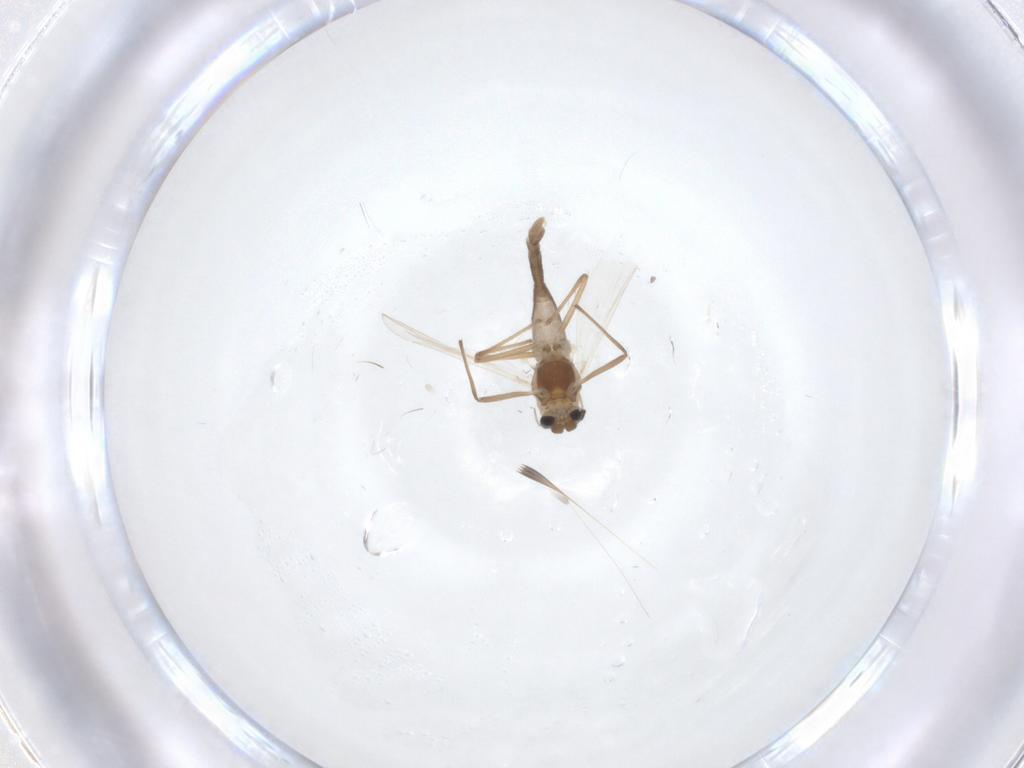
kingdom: Animalia
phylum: Arthropoda
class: Insecta
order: Diptera
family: Chironomidae
